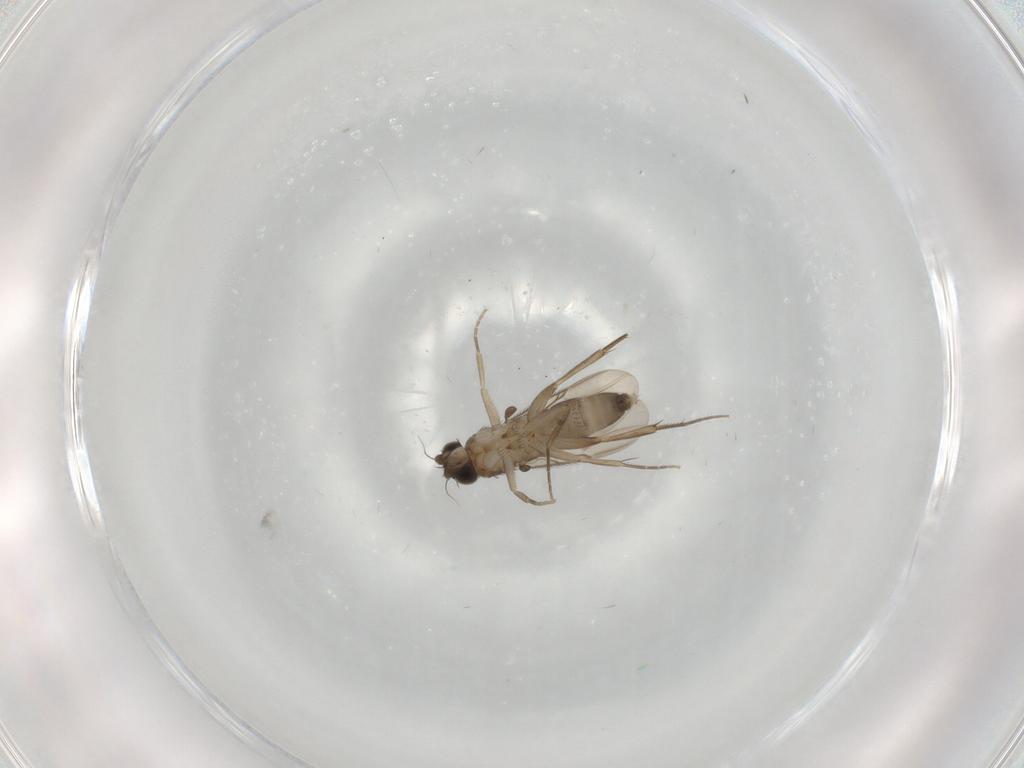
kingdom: Animalia
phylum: Arthropoda
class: Insecta
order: Diptera
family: Phoridae
